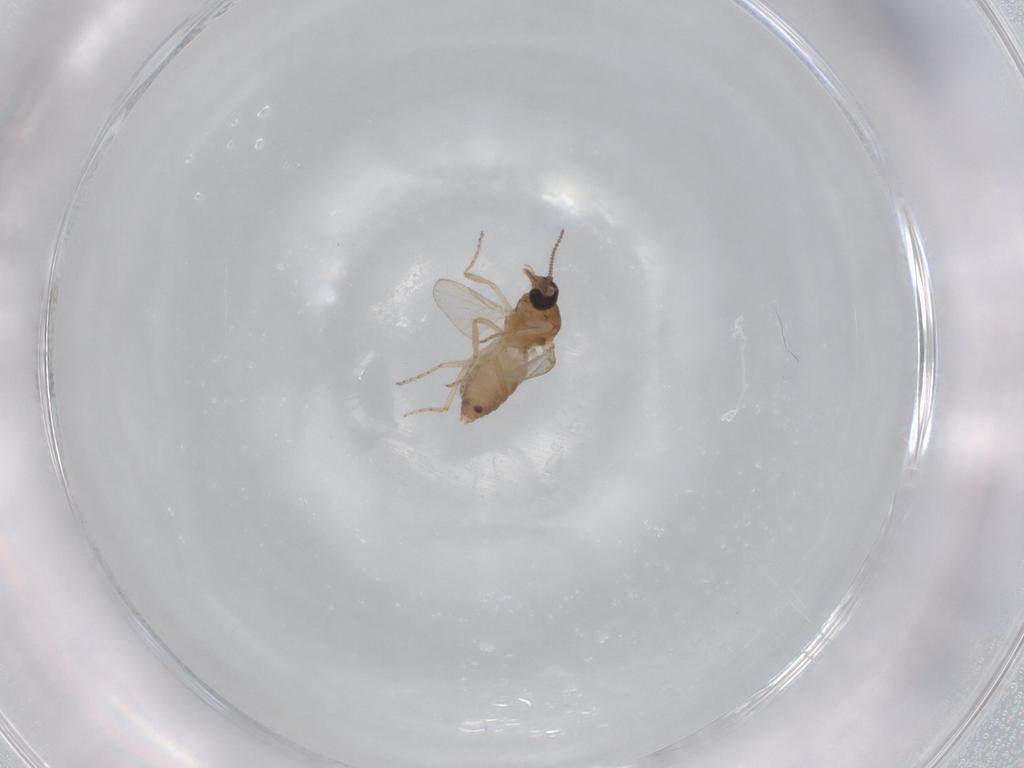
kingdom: Animalia
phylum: Arthropoda
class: Insecta
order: Diptera
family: Ceratopogonidae
